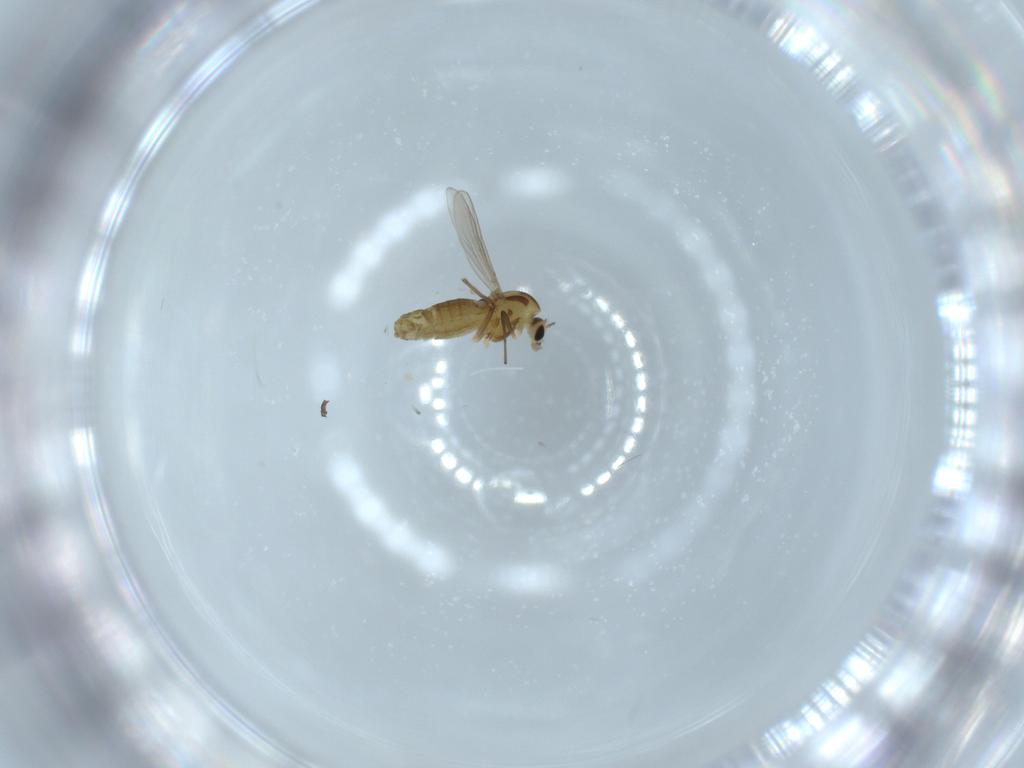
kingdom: Animalia
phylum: Arthropoda
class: Insecta
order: Diptera
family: Chironomidae
